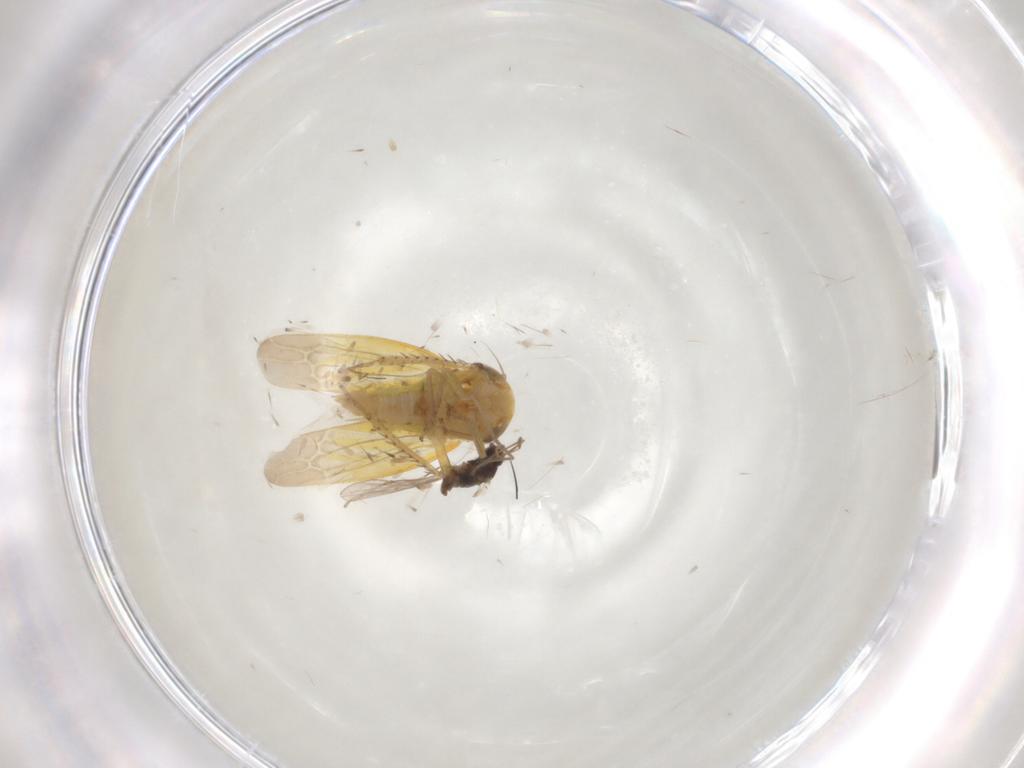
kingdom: Animalia
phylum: Arthropoda
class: Insecta
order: Hemiptera
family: Cicadellidae
